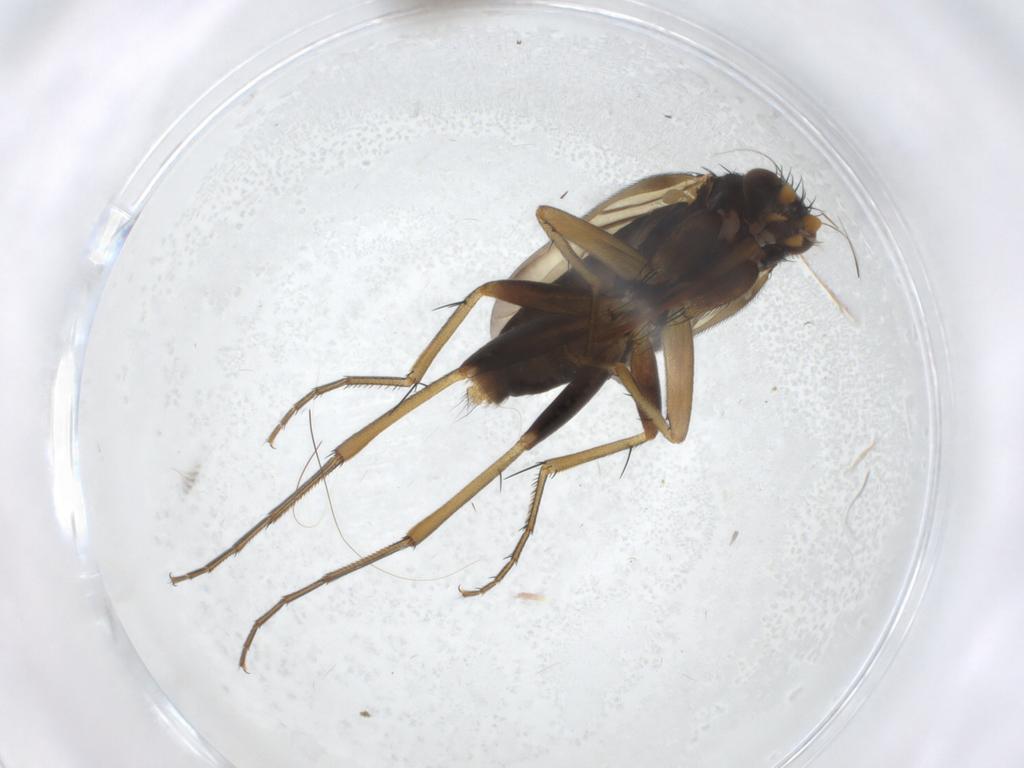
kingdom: Animalia
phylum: Arthropoda
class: Insecta
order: Diptera
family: Phoridae
